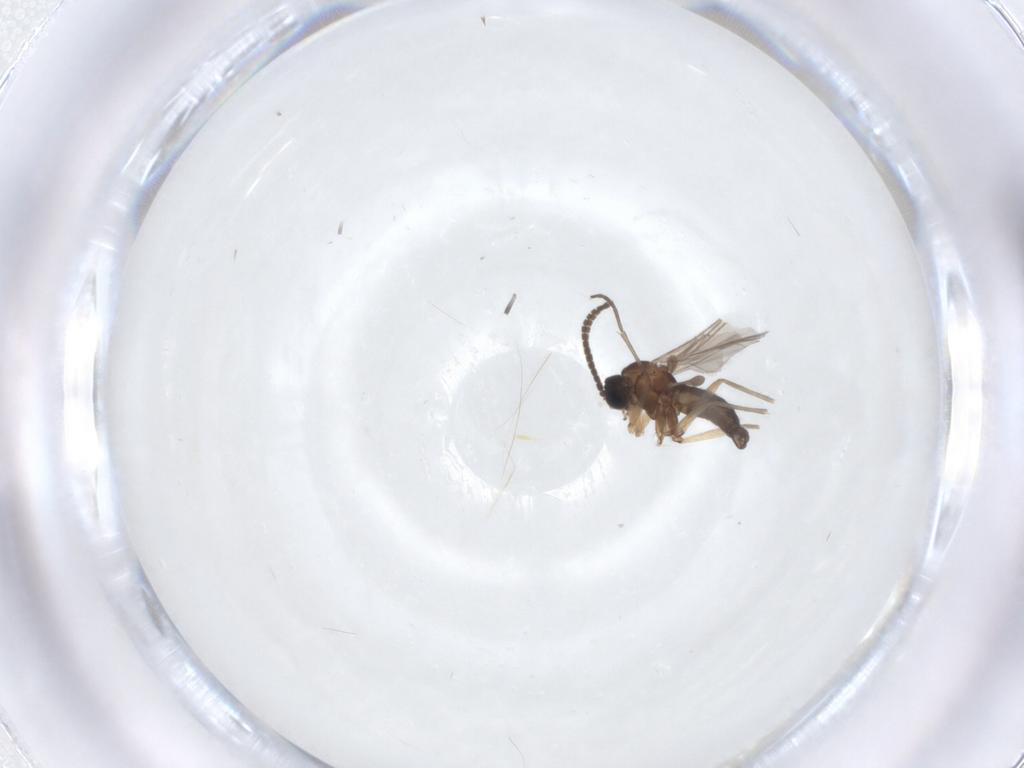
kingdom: Animalia
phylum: Arthropoda
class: Insecta
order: Diptera
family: Sciaridae
